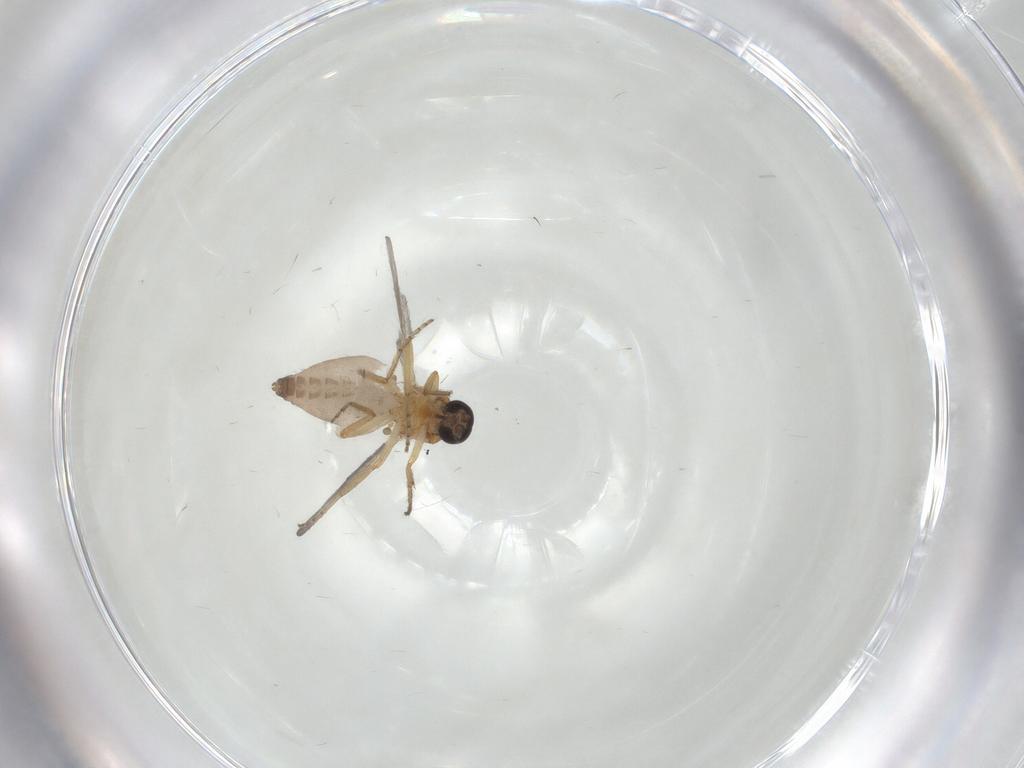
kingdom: Animalia
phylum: Arthropoda
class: Insecta
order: Diptera
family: Ceratopogonidae
